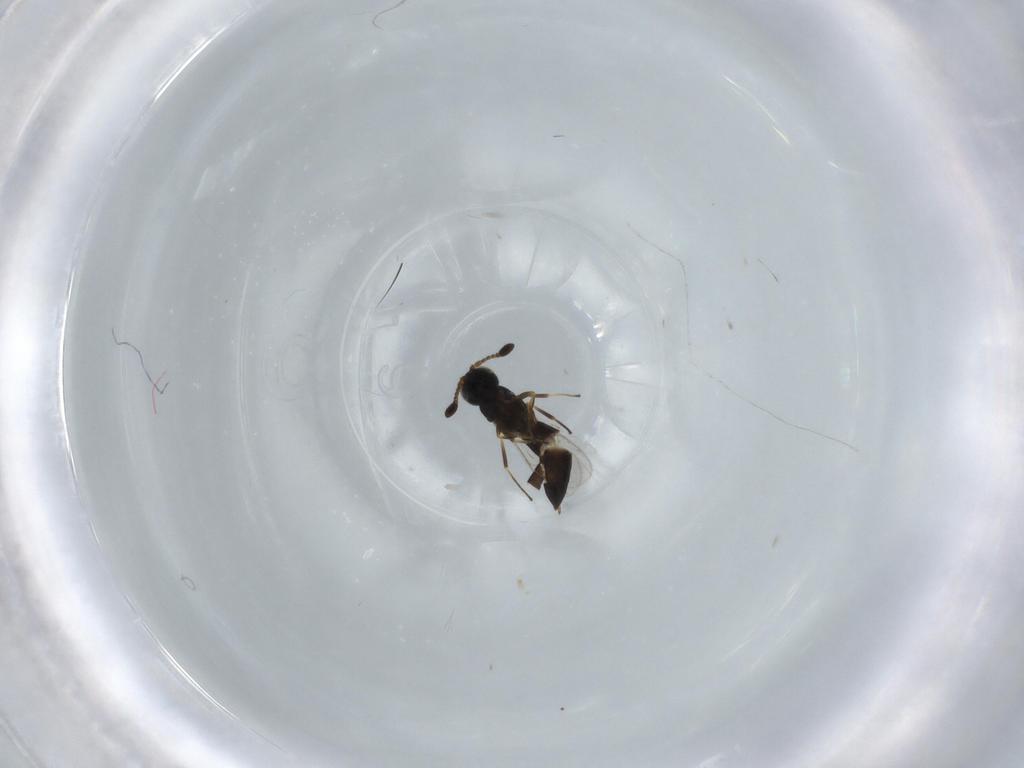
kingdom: Animalia
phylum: Arthropoda
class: Insecta
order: Hymenoptera
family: Scelionidae
